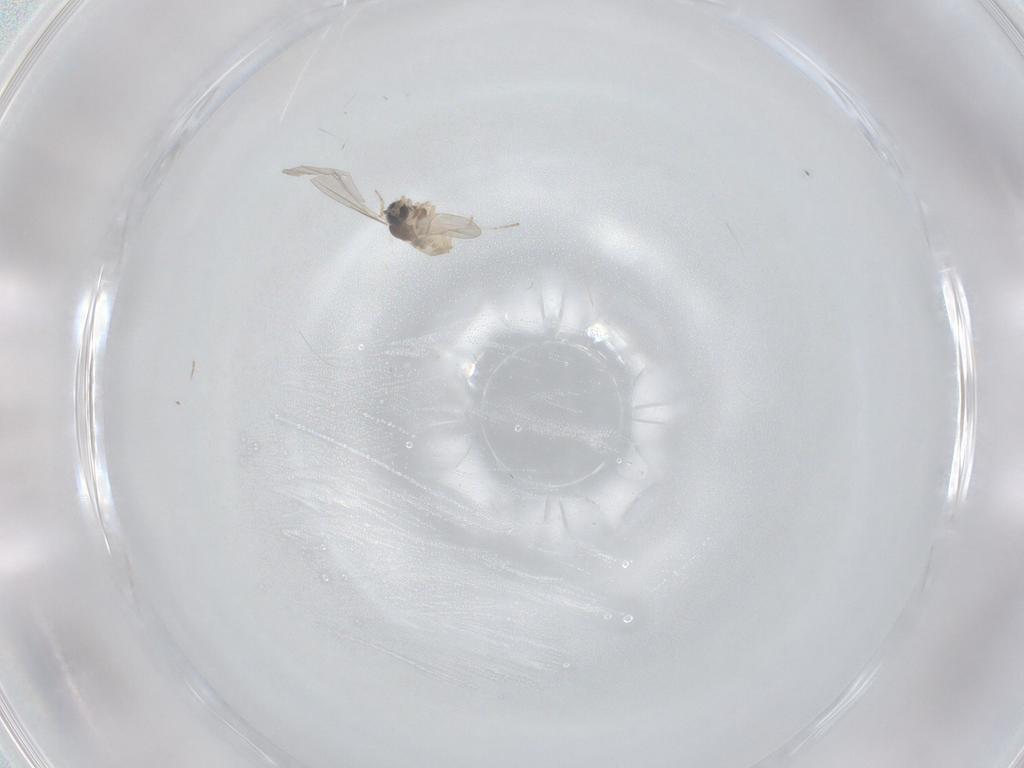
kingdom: Animalia
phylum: Arthropoda
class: Insecta
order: Diptera
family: Cecidomyiidae
